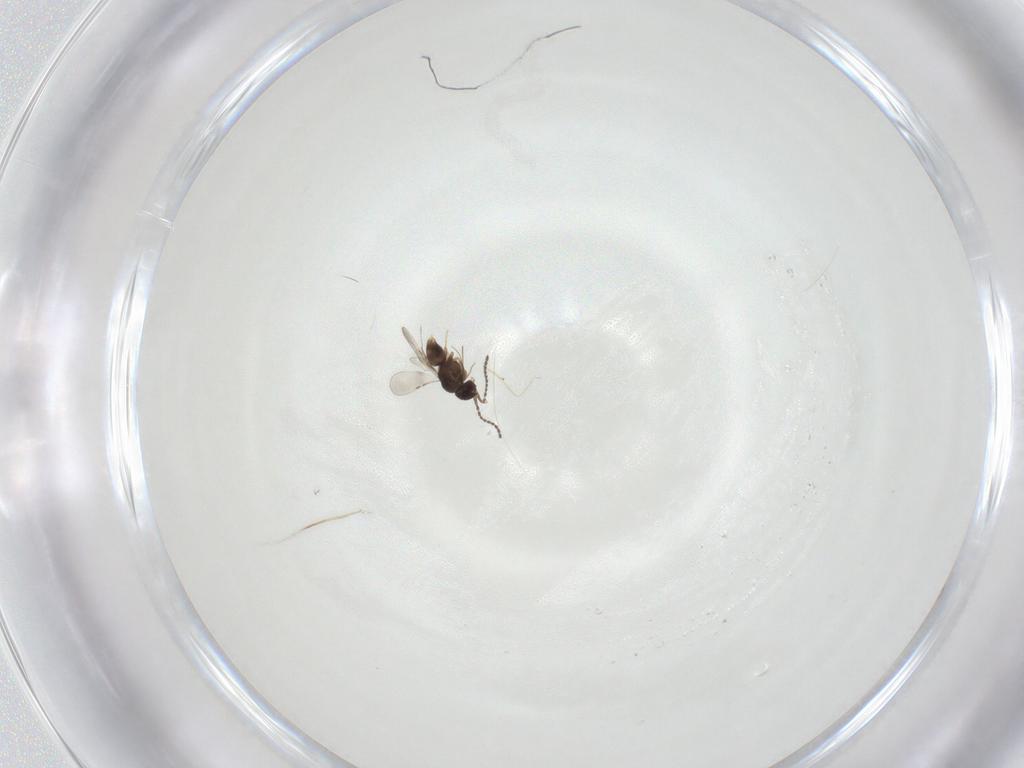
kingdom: Animalia
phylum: Arthropoda
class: Insecta
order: Hymenoptera
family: Ceraphronidae
